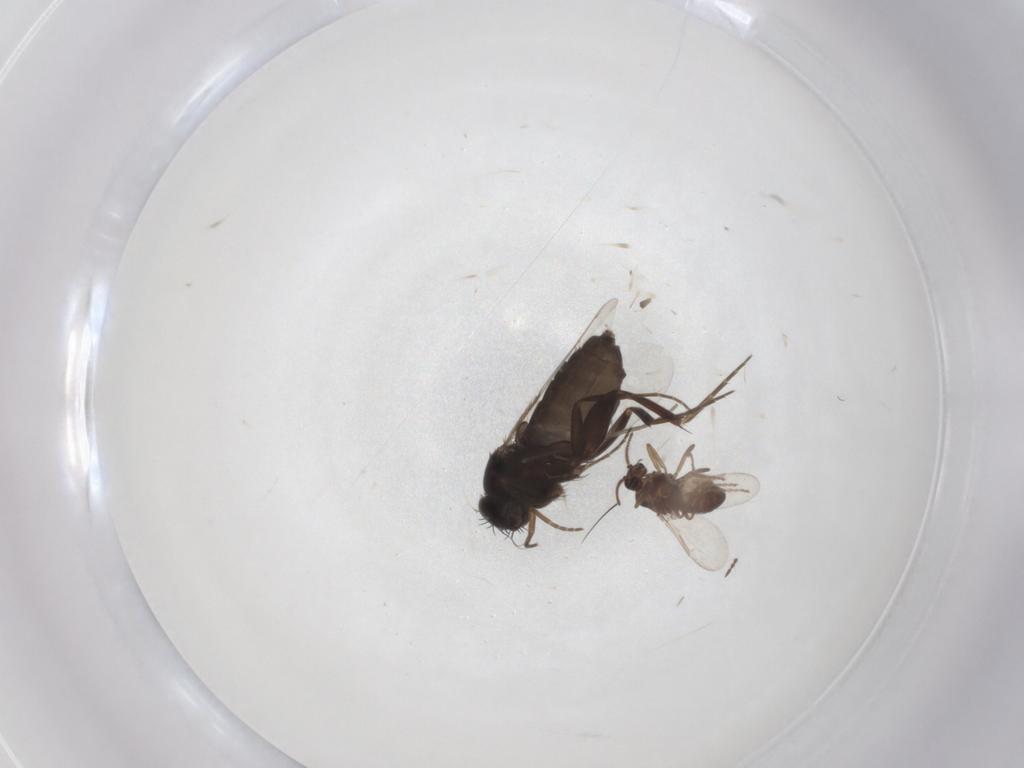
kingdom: Animalia
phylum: Arthropoda
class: Insecta
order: Diptera
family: Phoridae
